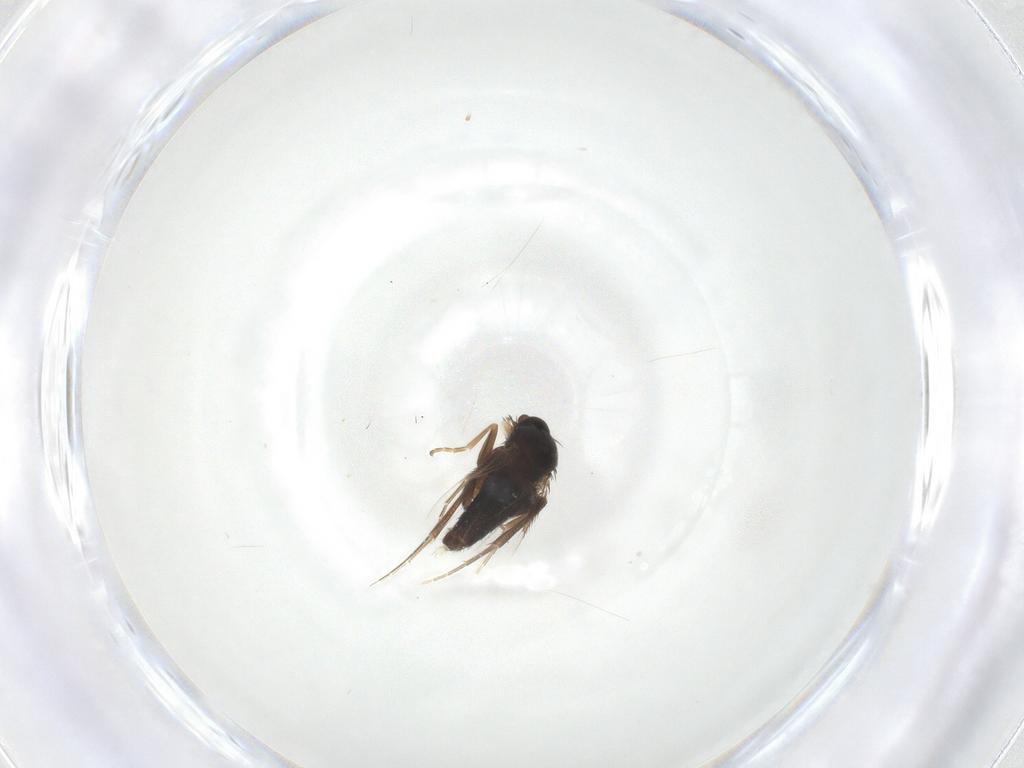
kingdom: Animalia
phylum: Arthropoda
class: Insecta
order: Diptera
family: Phoridae
